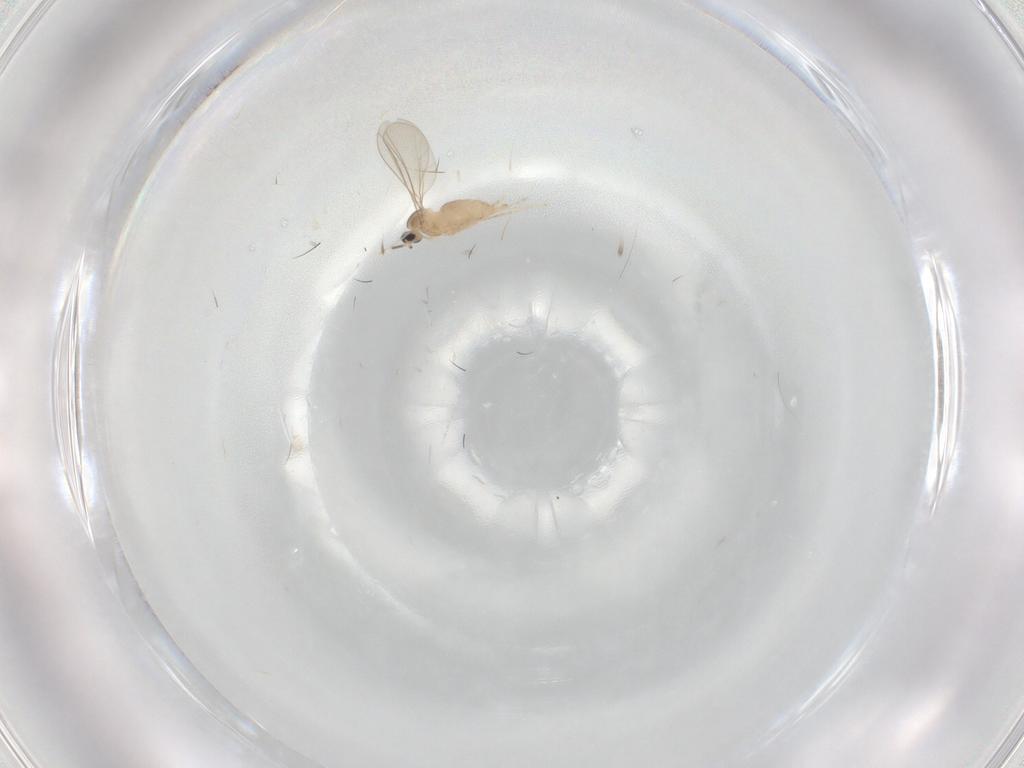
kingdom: Animalia
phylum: Arthropoda
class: Insecta
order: Diptera
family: Cecidomyiidae
